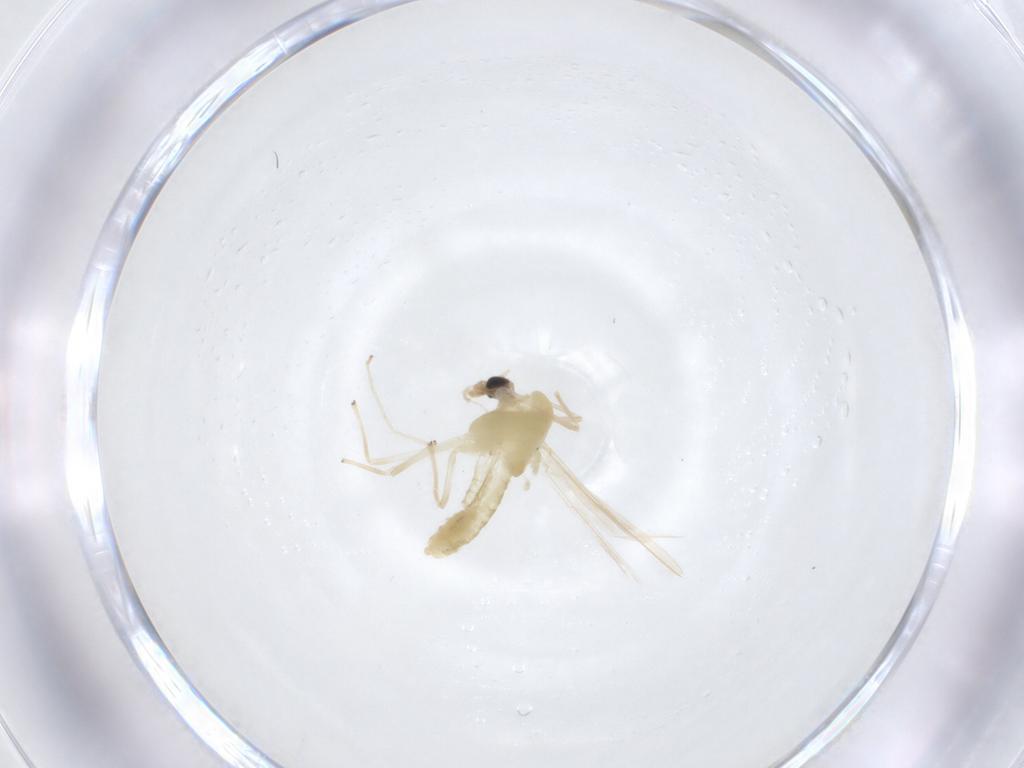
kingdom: Animalia
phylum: Arthropoda
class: Insecta
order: Diptera
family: Chironomidae
